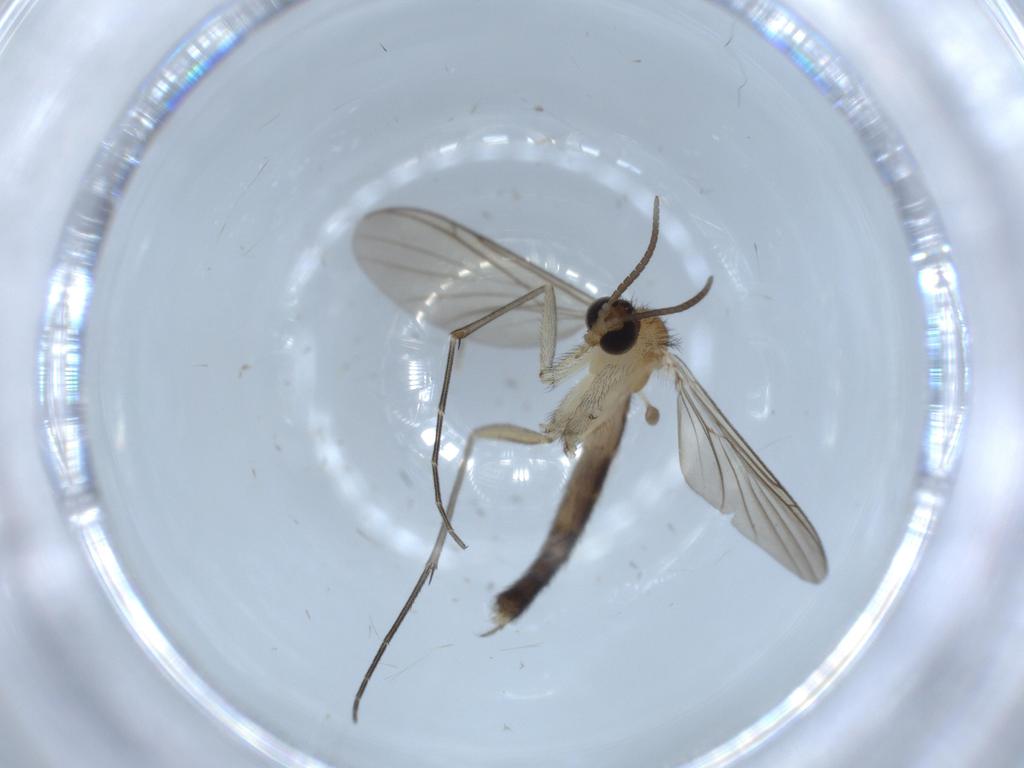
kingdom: Animalia
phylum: Arthropoda
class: Insecta
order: Diptera
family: Keroplatidae
